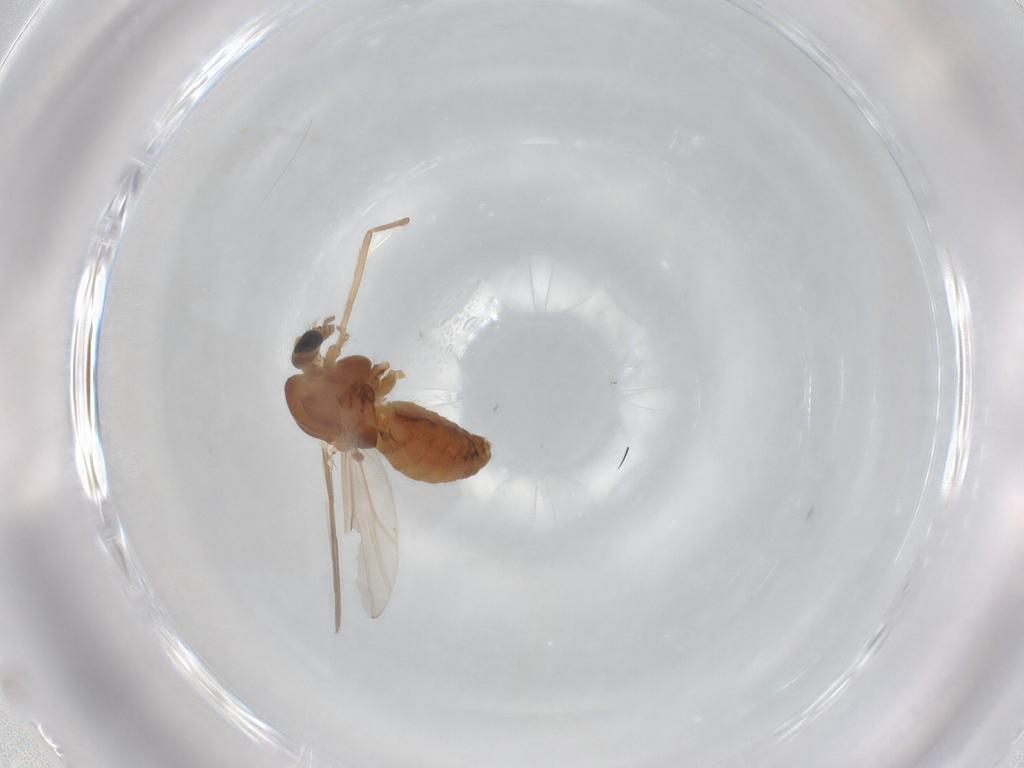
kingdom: Animalia
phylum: Arthropoda
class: Insecta
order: Diptera
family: Chironomidae
